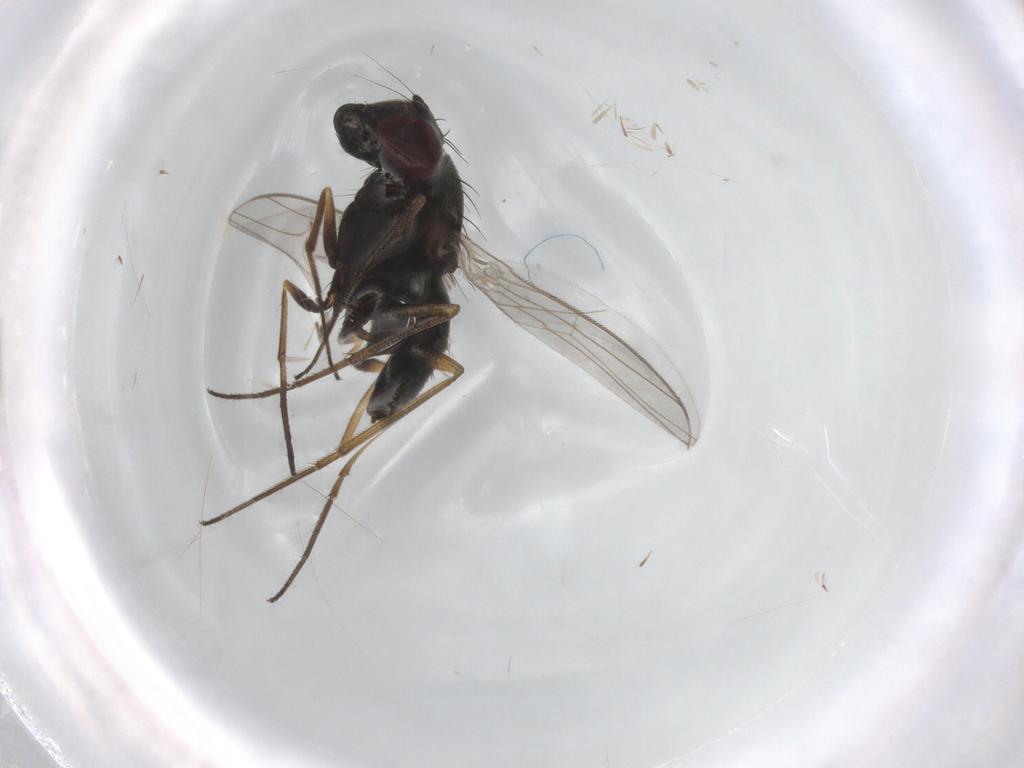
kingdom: Animalia
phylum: Arthropoda
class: Insecta
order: Diptera
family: Dolichopodidae
